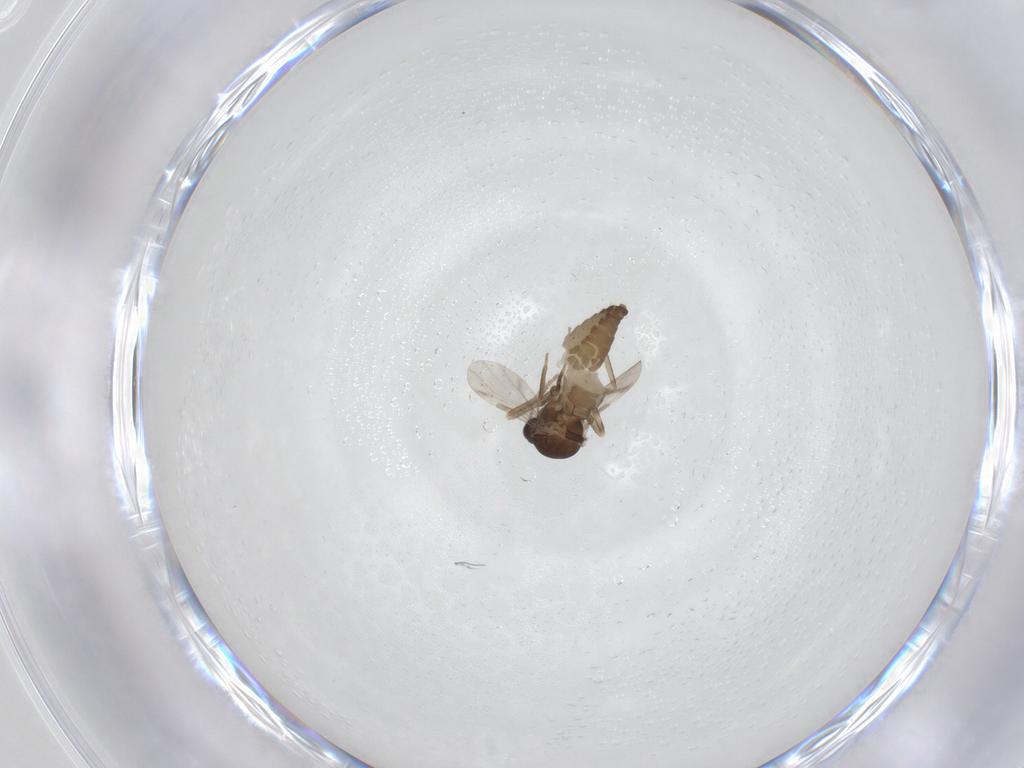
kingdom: Animalia
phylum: Arthropoda
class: Insecta
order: Diptera
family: Ceratopogonidae
